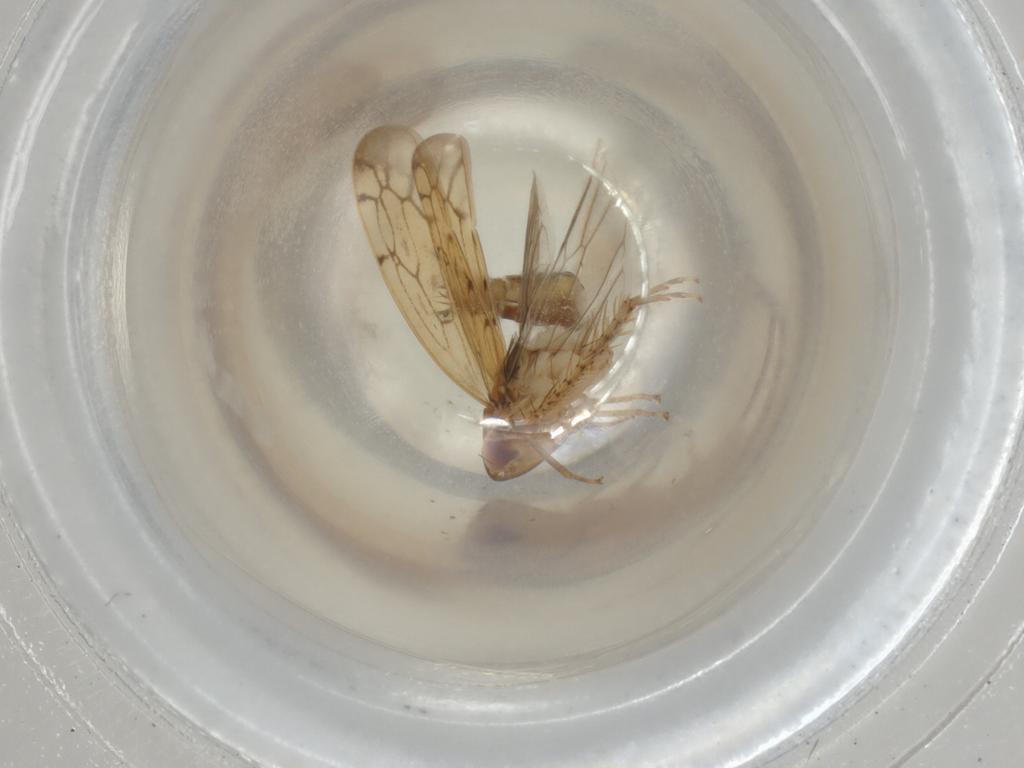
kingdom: Animalia
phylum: Arthropoda
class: Insecta
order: Hemiptera
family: Cicadellidae
